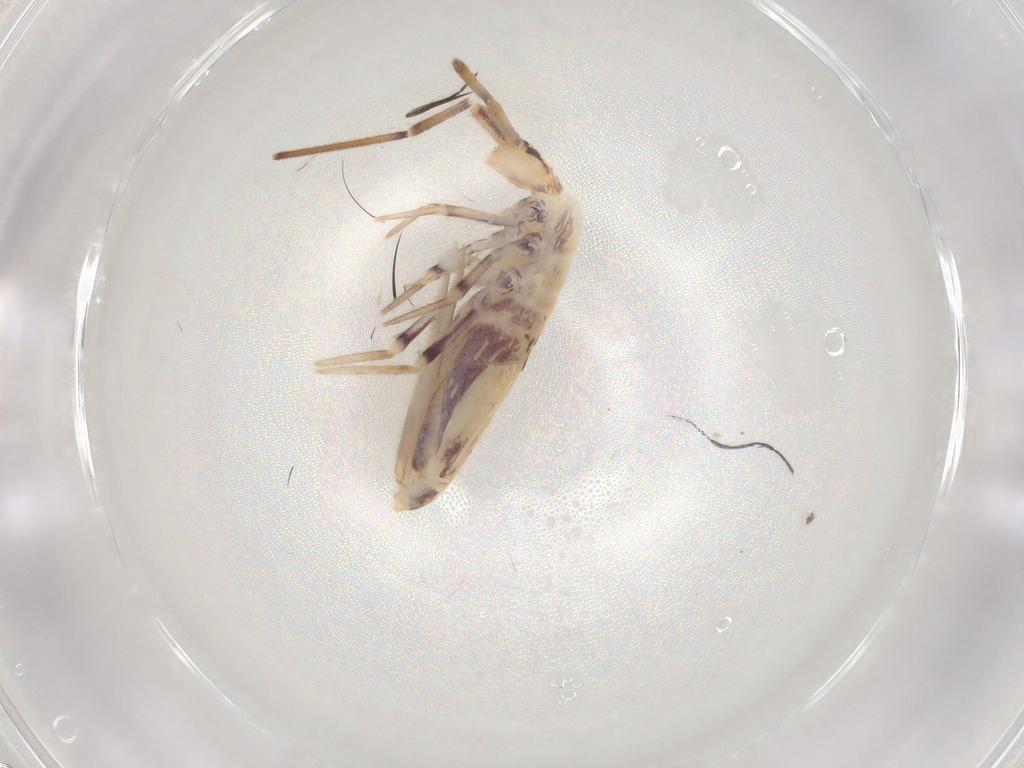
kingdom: Animalia
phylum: Arthropoda
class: Collembola
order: Poduromorpha
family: Hypogastruridae
